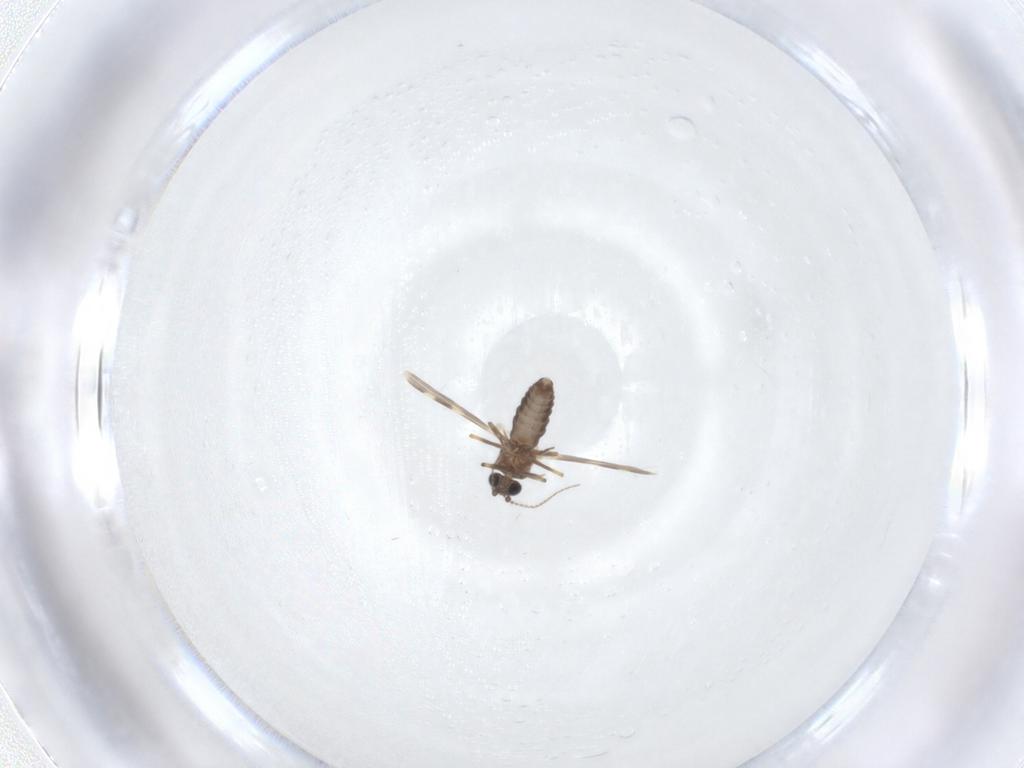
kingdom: Animalia
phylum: Arthropoda
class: Insecta
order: Diptera
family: Ceratopogonidae
